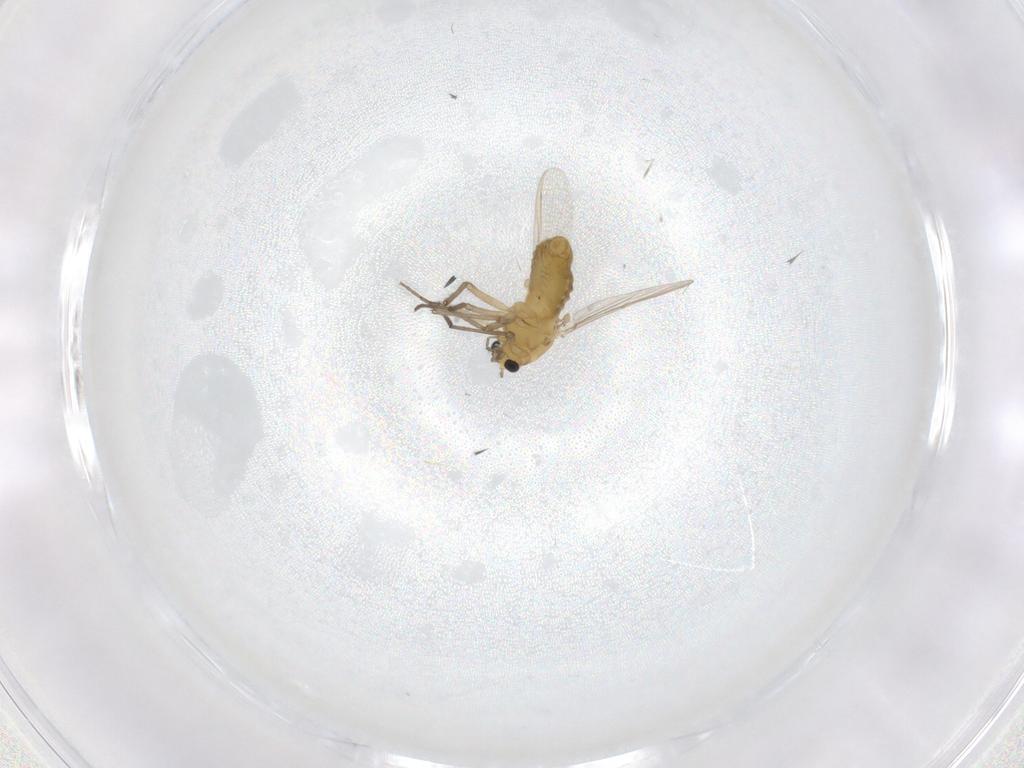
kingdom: Animalia
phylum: Arthropoda
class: Insecta
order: Diptera
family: Chironomidae
